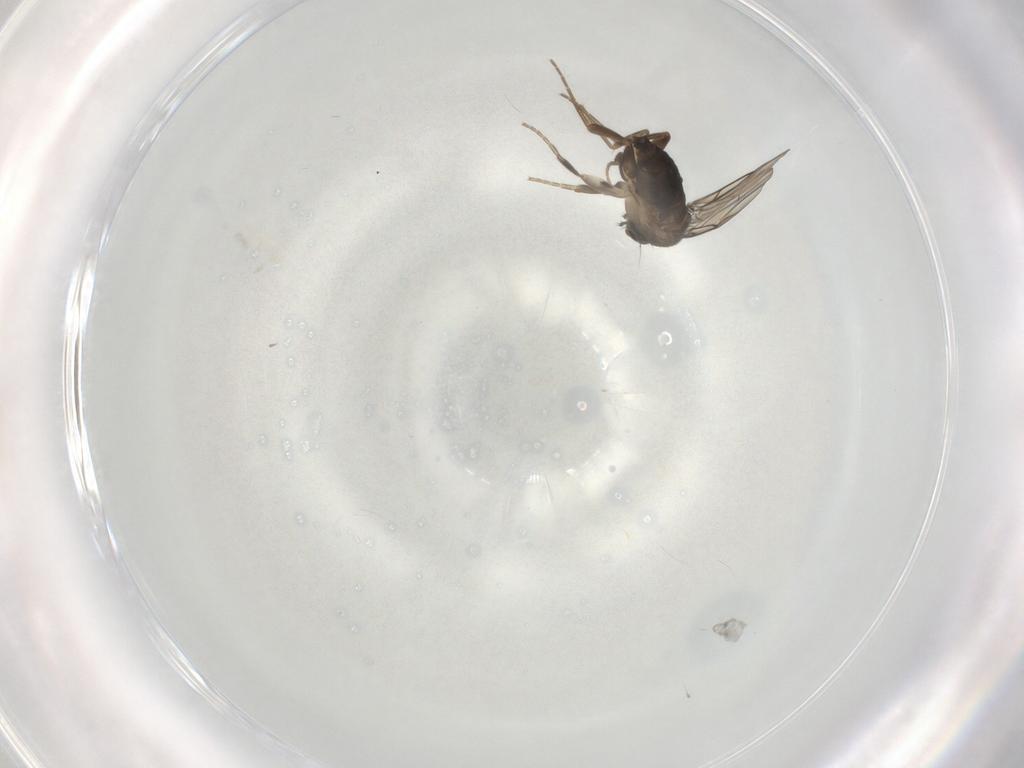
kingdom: Animalia
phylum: Arthropoda
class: Insecta
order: Diptera
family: Phoridae
